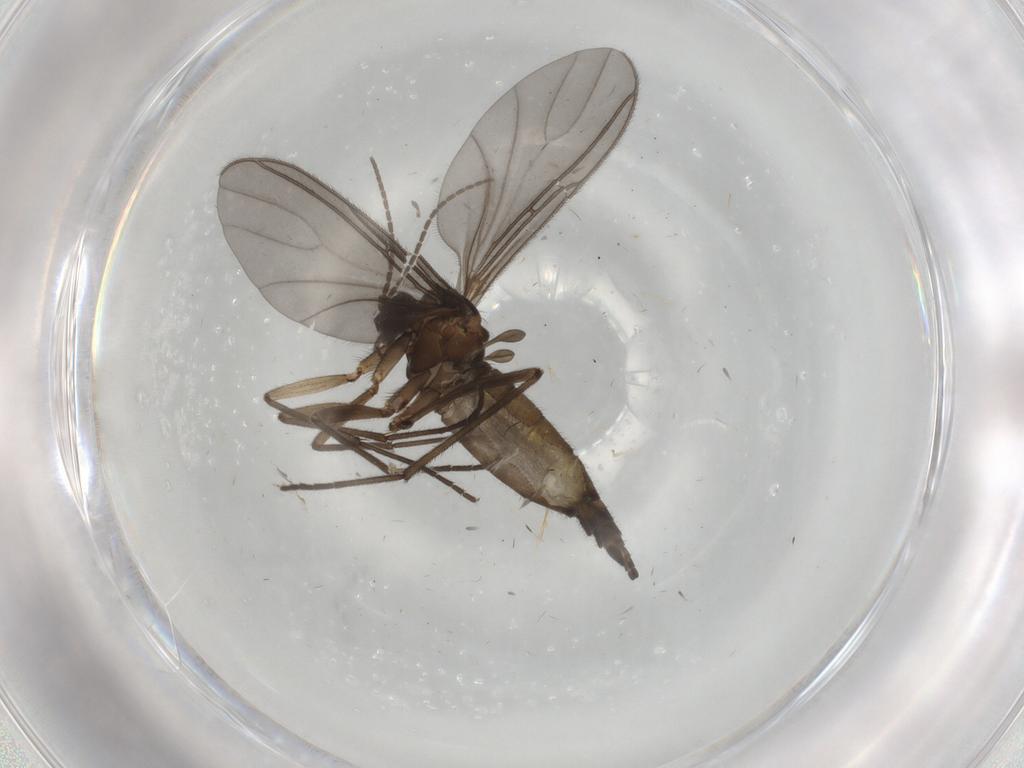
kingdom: Animalia
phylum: Arthropoda
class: Insecta
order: Diptera
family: Sciaridae
